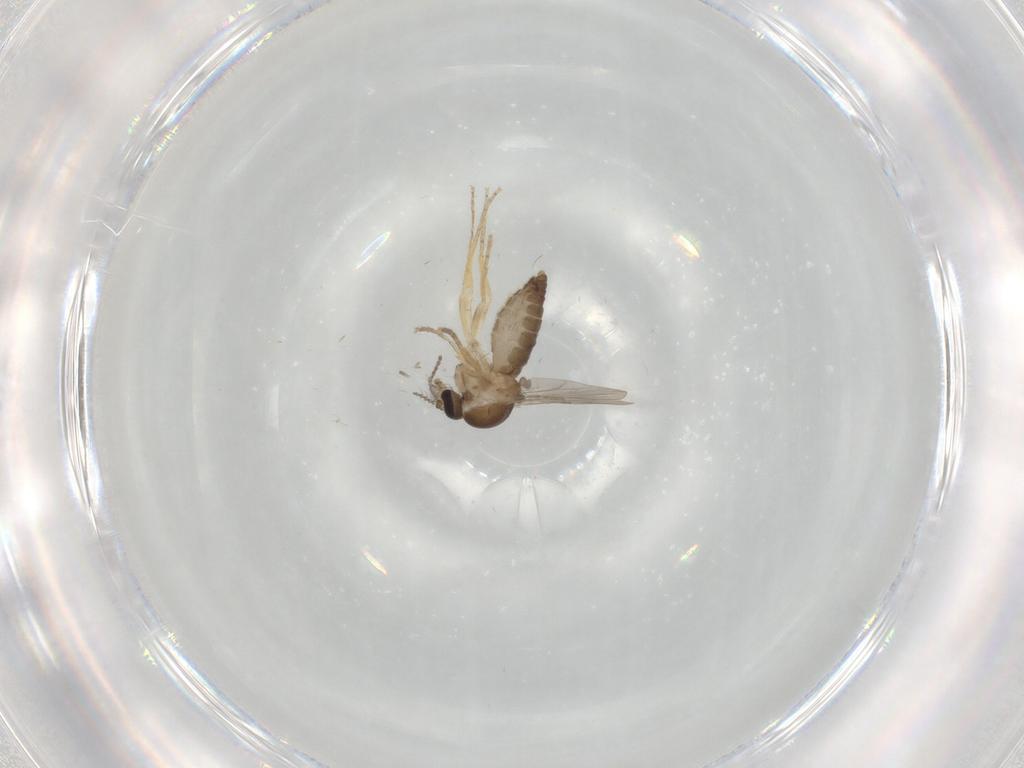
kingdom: Animalia
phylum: Arthropoda
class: Insecta
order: Diptera
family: Ceratopogonidae
